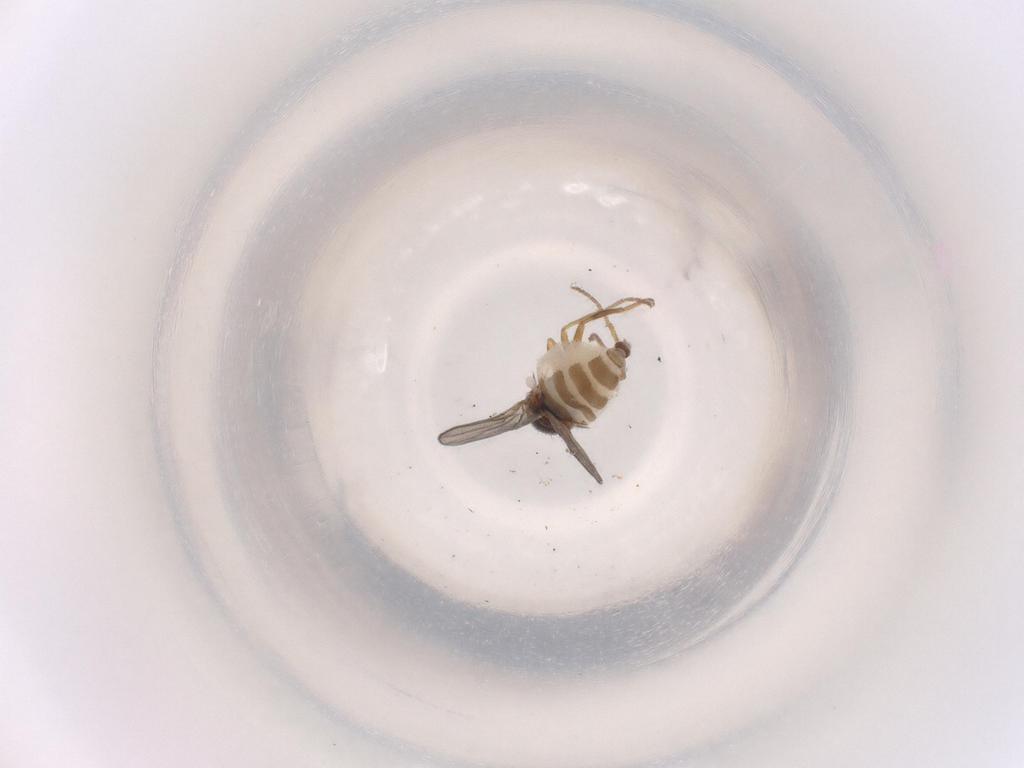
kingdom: Animalia
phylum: Arthropoda
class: Insecta
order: Diptera
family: Chloropidae
